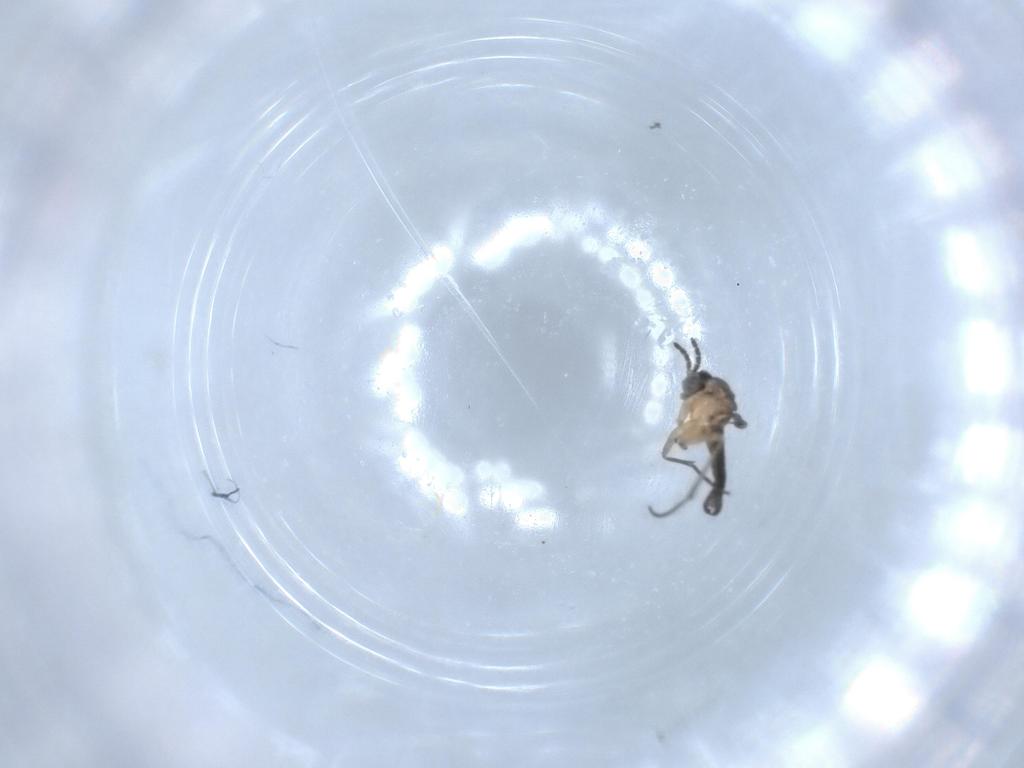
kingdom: Animalia
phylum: Arthropoda
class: Insecta
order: Diptera
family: Sciaridae
